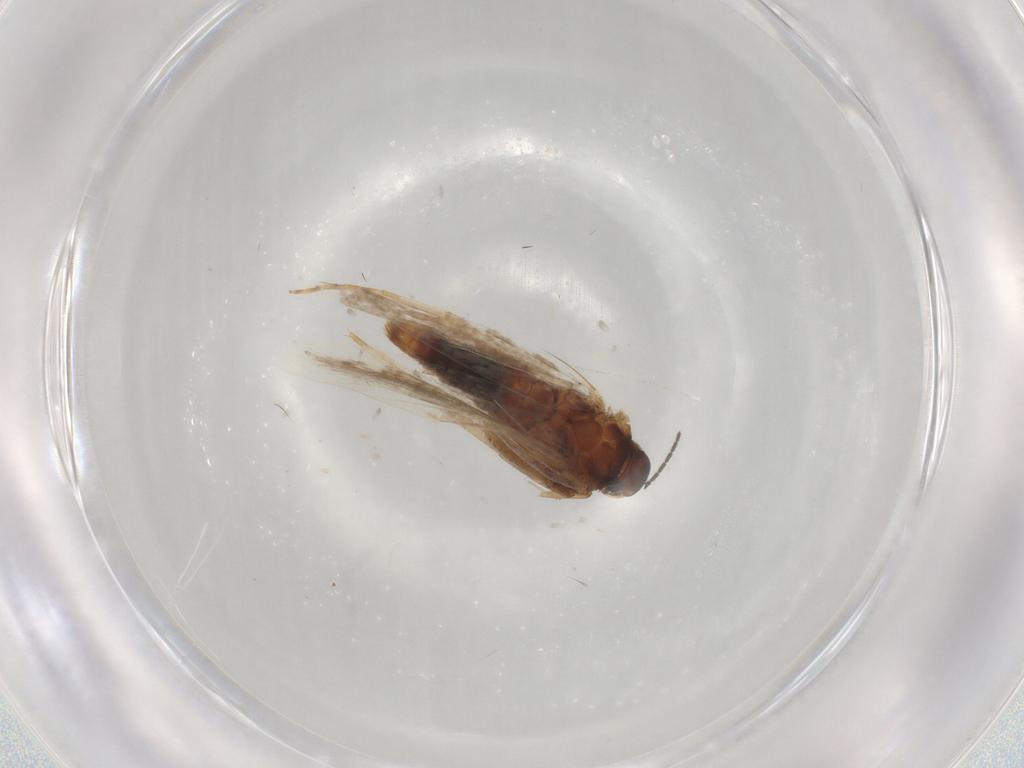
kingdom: Animalia
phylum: Arthropoda
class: Insecta
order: Lepidoptera
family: Gelechiidae
